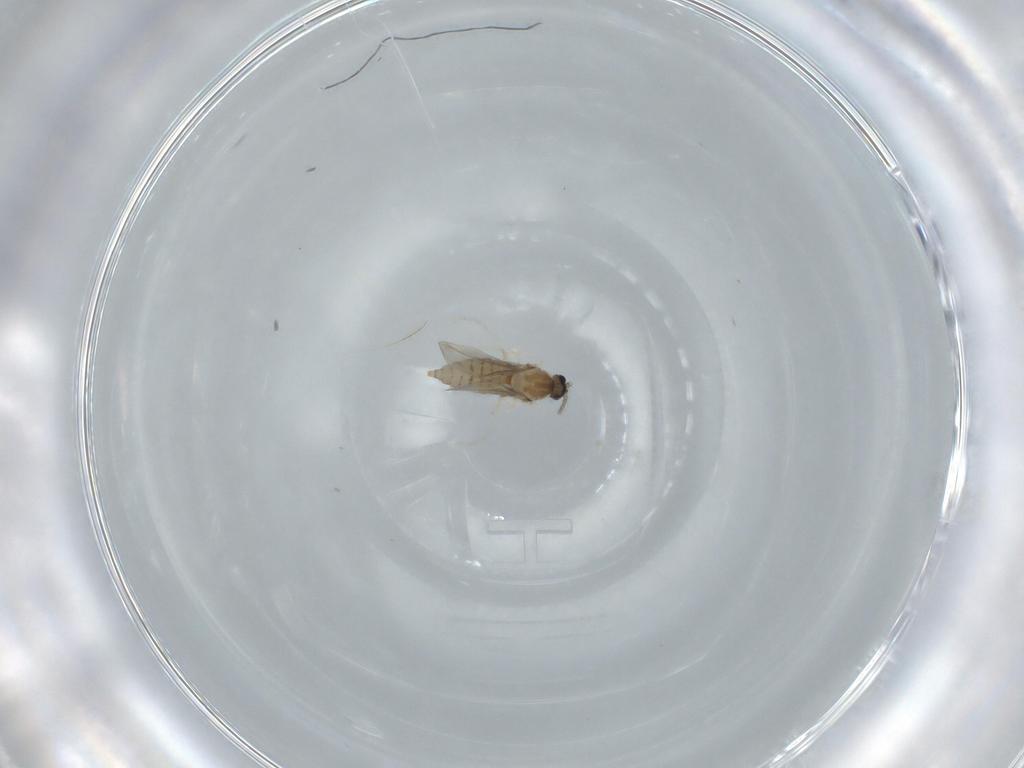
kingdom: Animalia
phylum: Arthropoda
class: Insecta
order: Diptera
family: Cecidomyiidae
